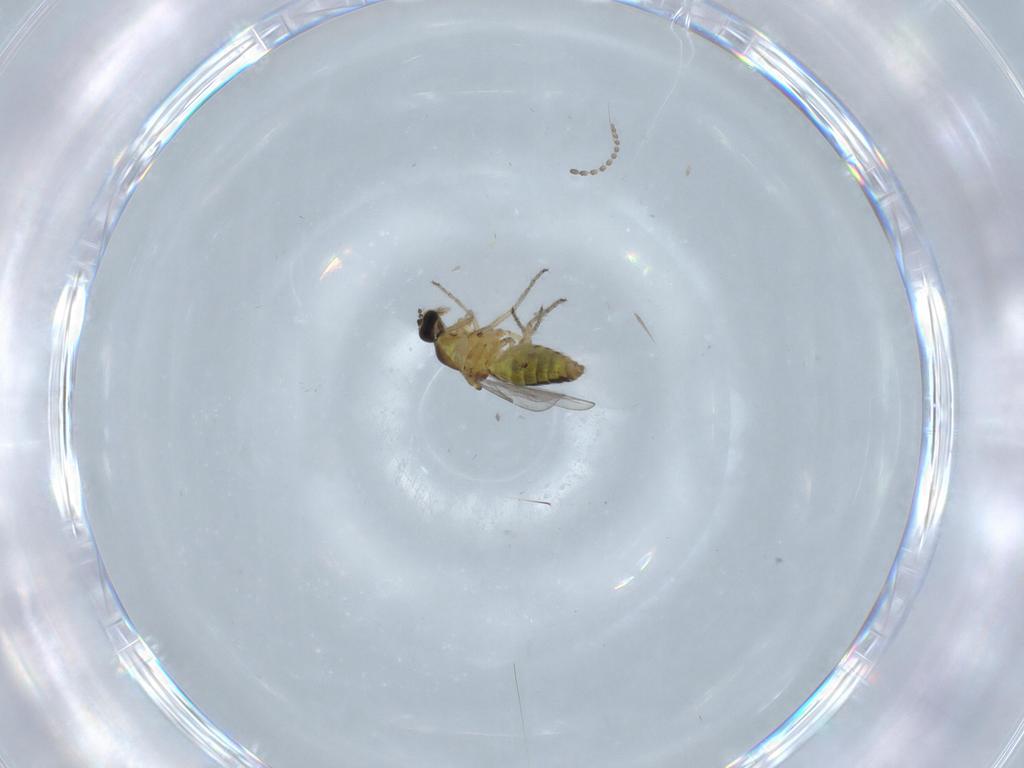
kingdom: Animalia
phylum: Arthropoda
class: Insecta
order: Diptera
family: Ceratopogonidae
